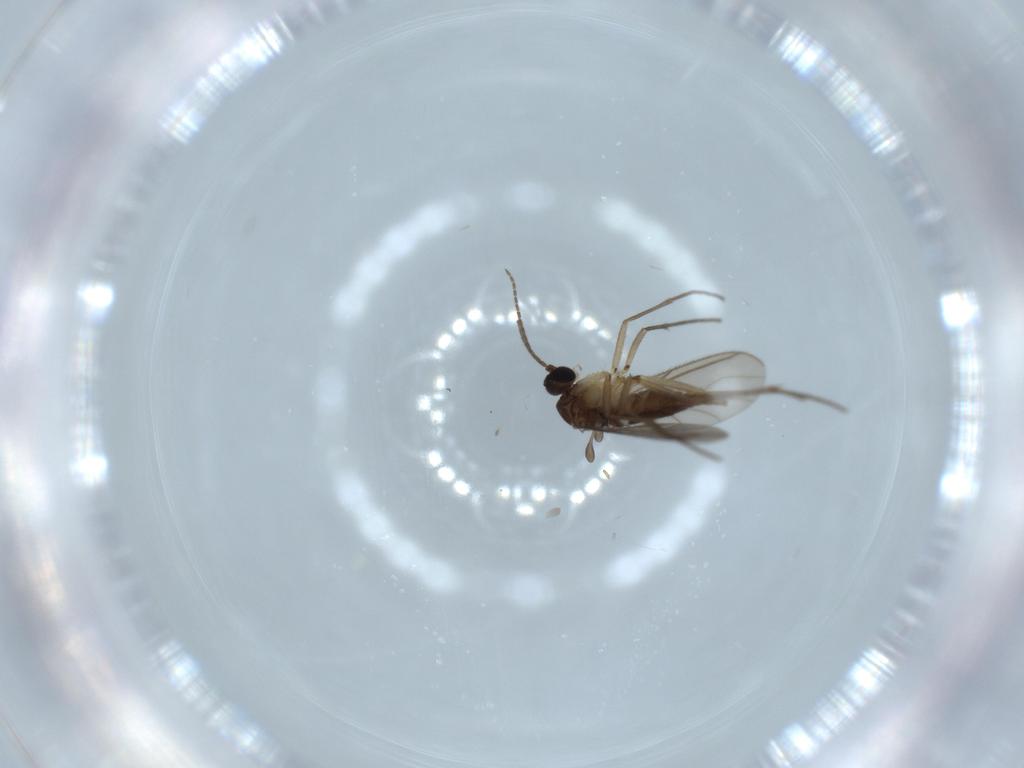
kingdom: Animalia
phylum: Arthropoda
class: Insecta
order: Diptera
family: Sciaridae
